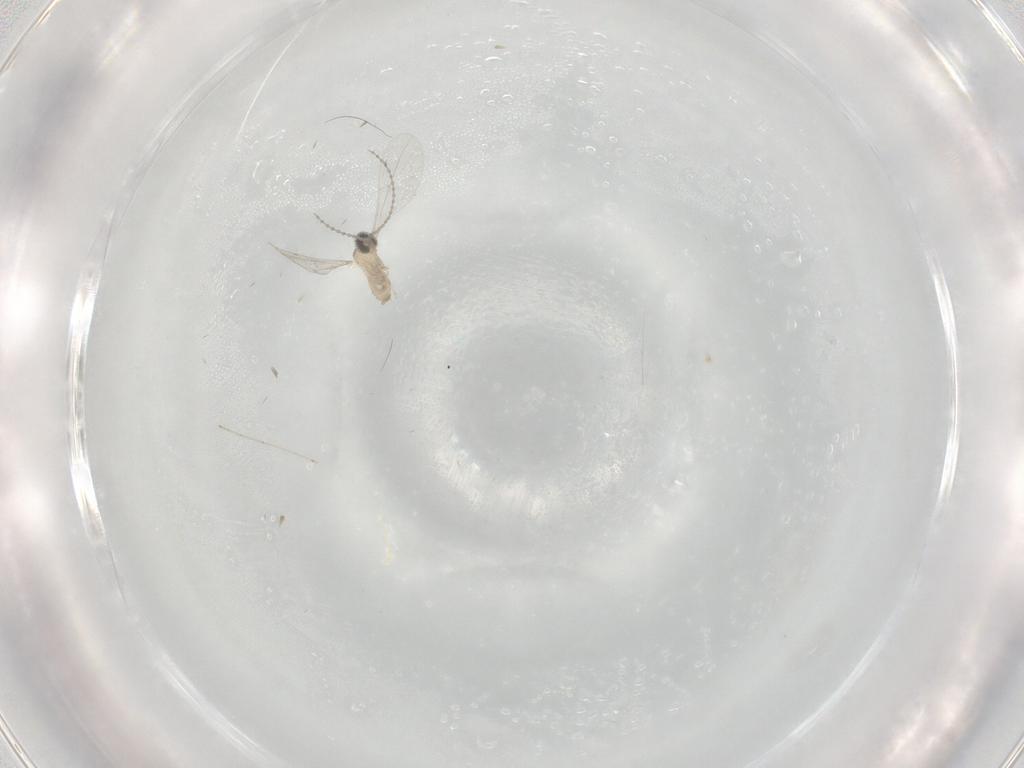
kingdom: Animalia
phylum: Arthropoda
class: Insecta
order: Diptera
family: Cecidomyiidae
